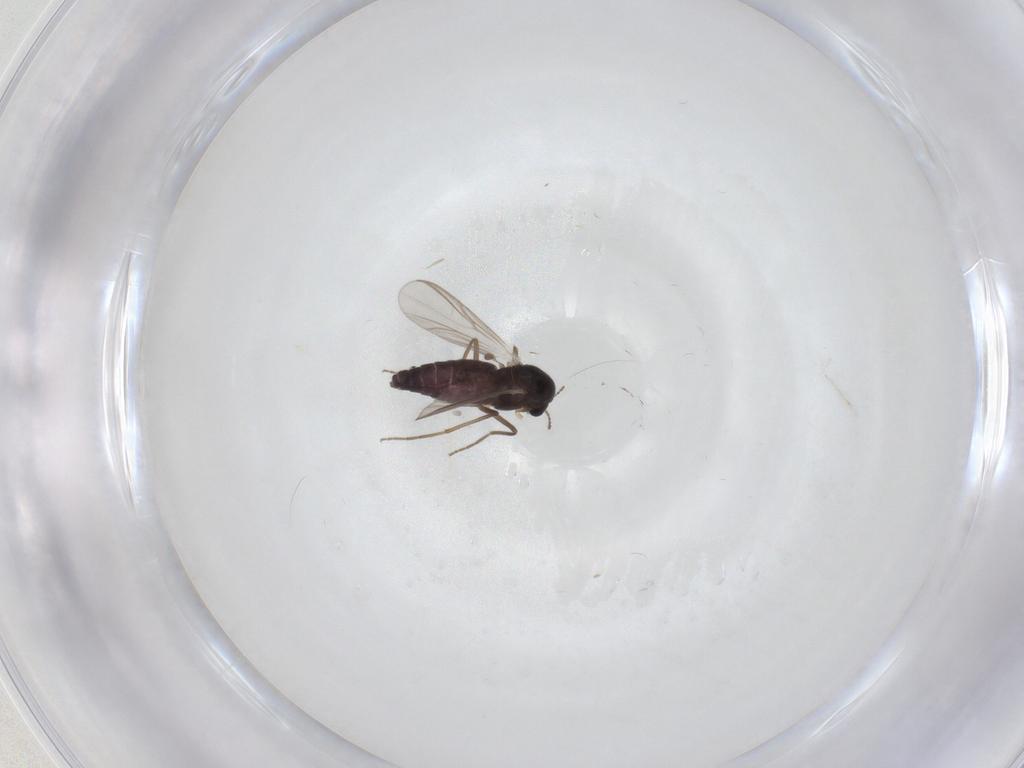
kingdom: Animalia
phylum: Arthropoda
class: Insecta
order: Diptera
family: Chironomidae
